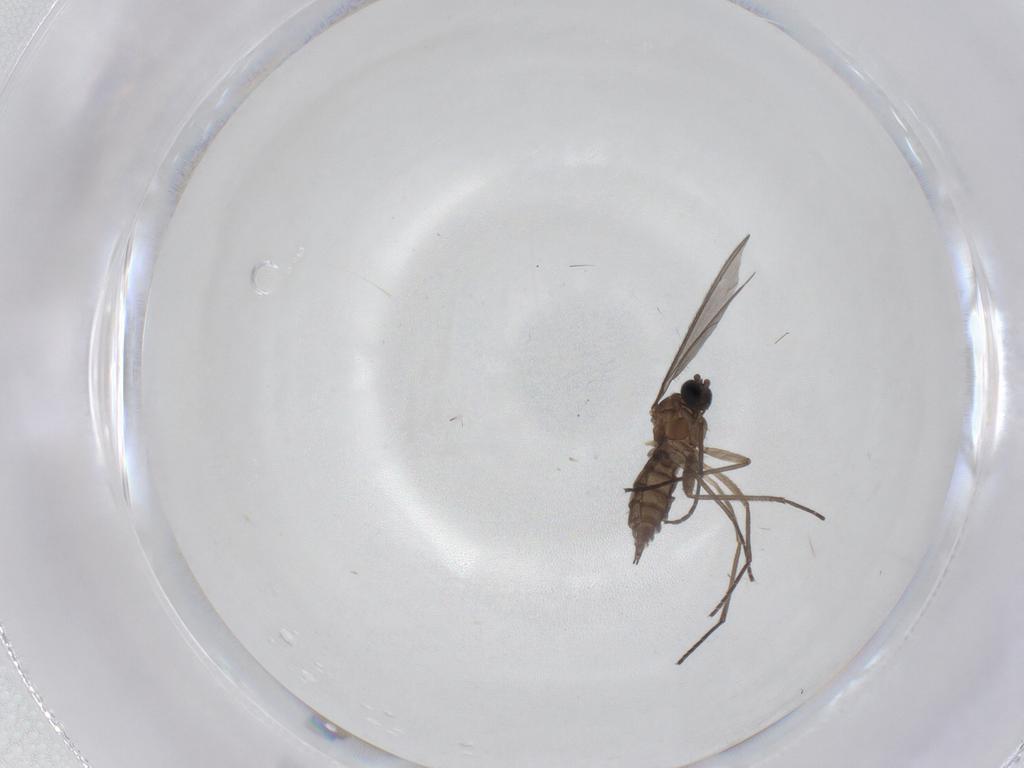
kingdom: Animalia
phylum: Arthropoda
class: Insecta
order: Diptera
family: Sciaridae
